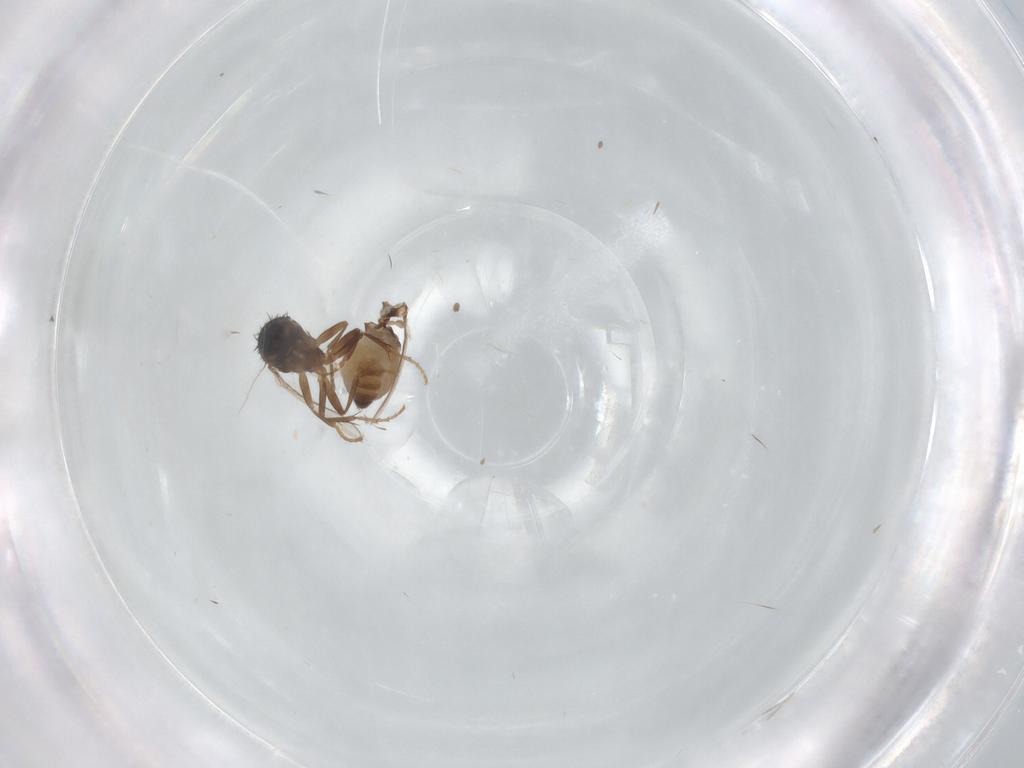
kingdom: Animalia
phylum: Arthropoda
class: Insecta
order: Diptera
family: Sphaeroceridae
